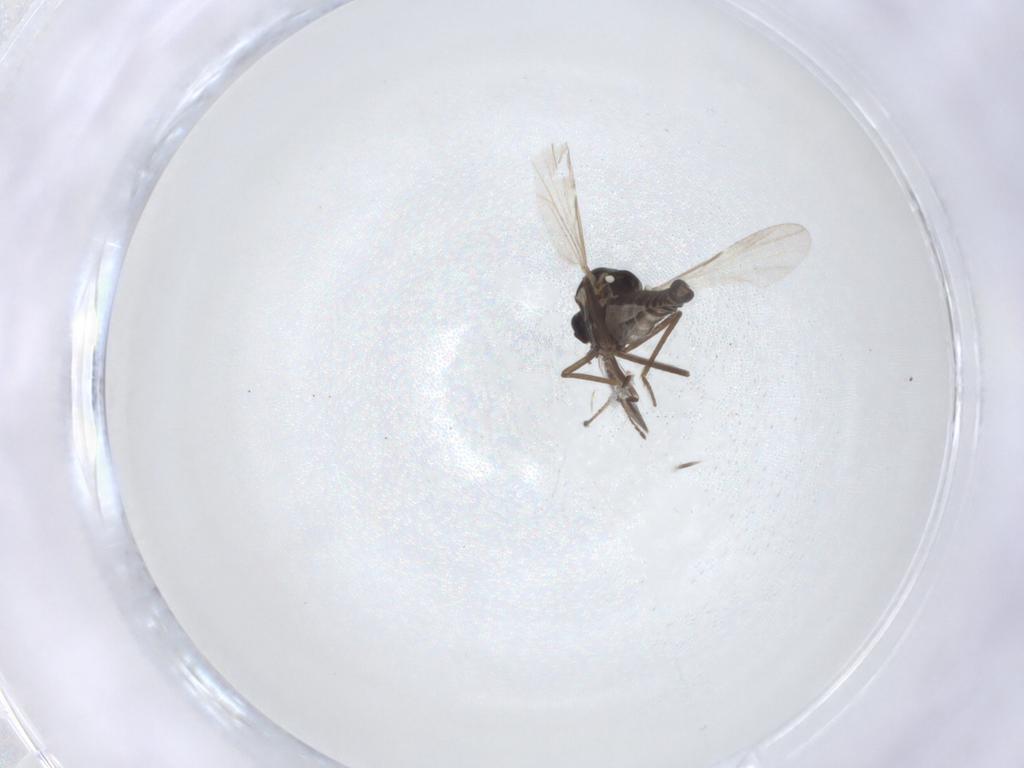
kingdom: Animalia
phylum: Arthropoda
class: Insecta
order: Diptera
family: Ceratopogonidae
